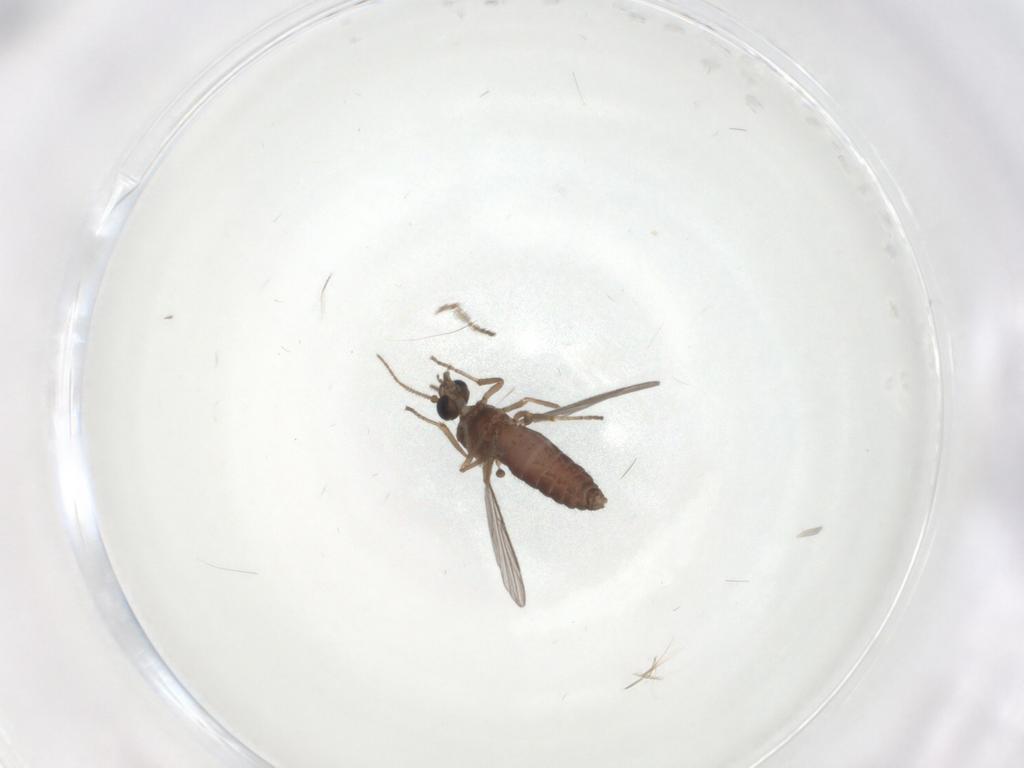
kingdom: Animalia
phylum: Arthropoda
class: Insecta
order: Diptera
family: Ceratopogonidae
